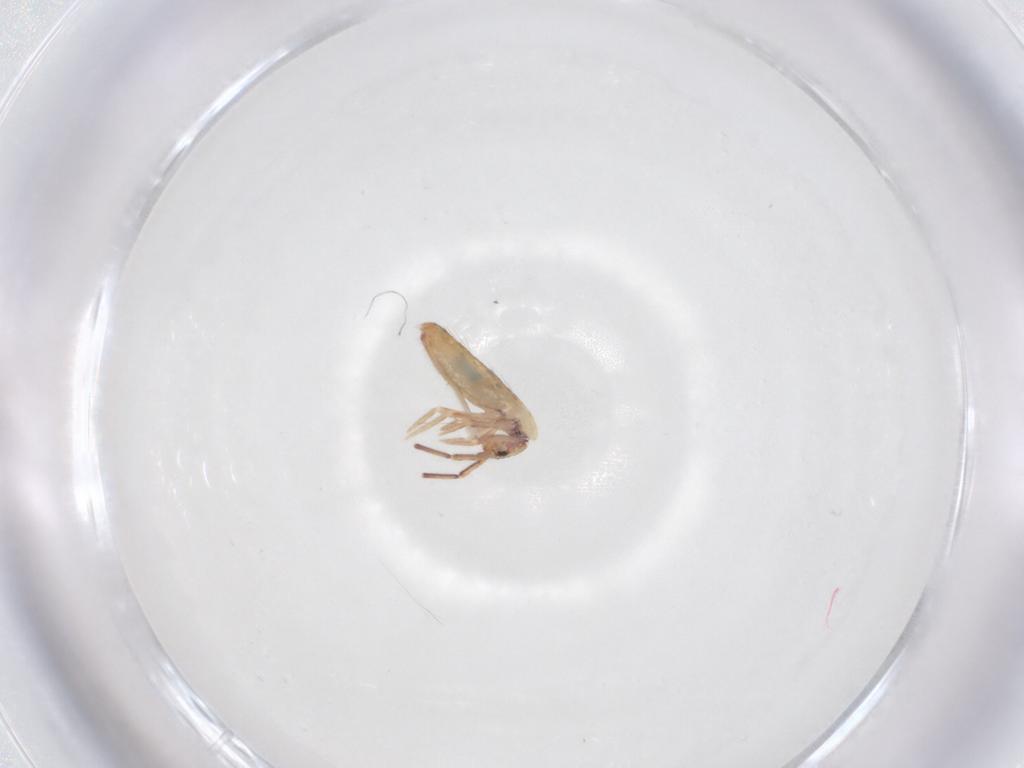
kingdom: Animalia
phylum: Arthropoda
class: Collembola
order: Entomobryomorpha
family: Entomobryidae
